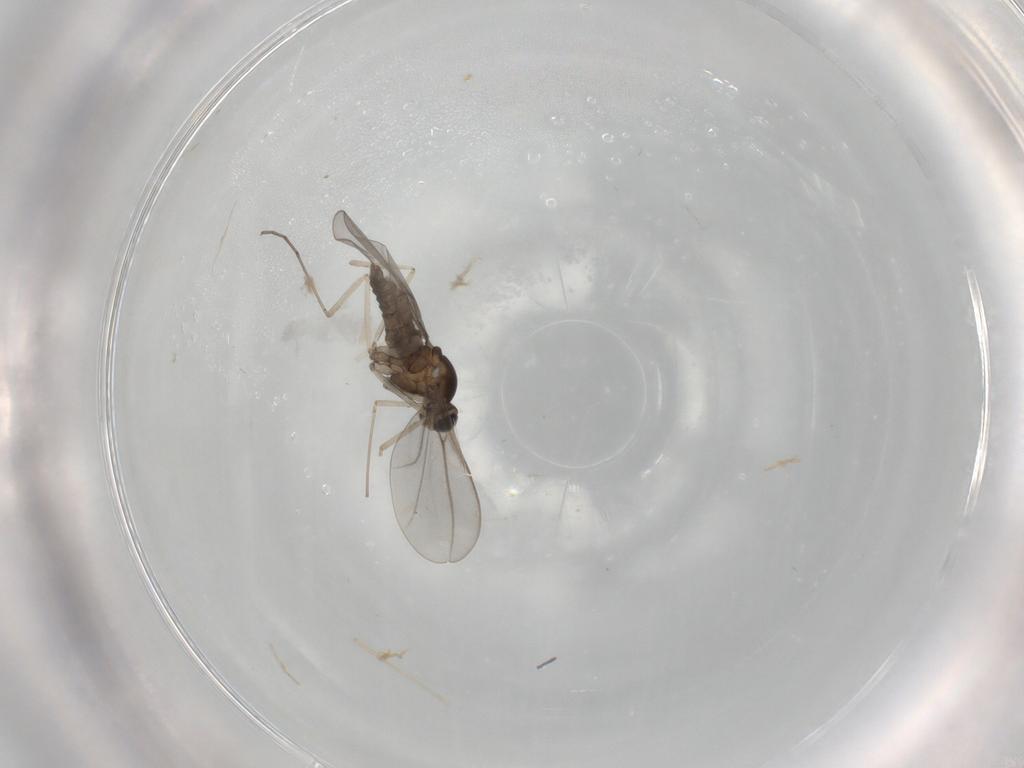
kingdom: Animalia
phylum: Arthropoda
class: Insecta
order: Diptera
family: Cecidomyiidae
